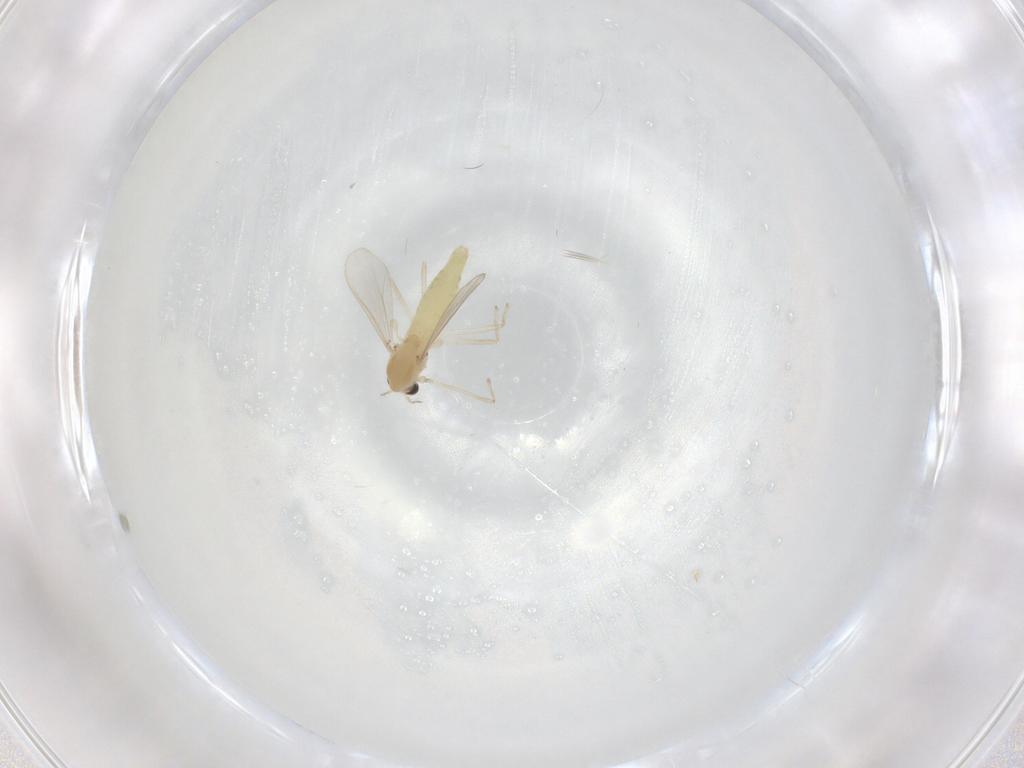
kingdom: Animalia
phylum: Arthropoda
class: Insecta
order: Diptera
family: Chironomidae
